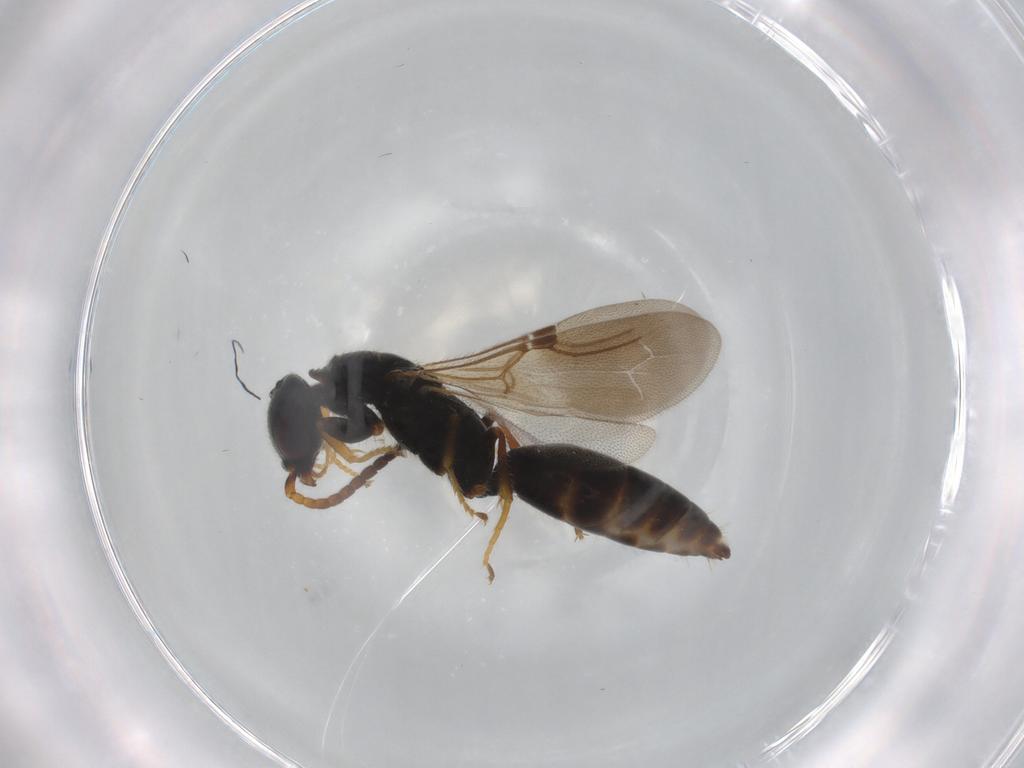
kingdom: Animalia
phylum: Arthropoda
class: Insecta
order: Hymenoptera
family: Bethylidae
